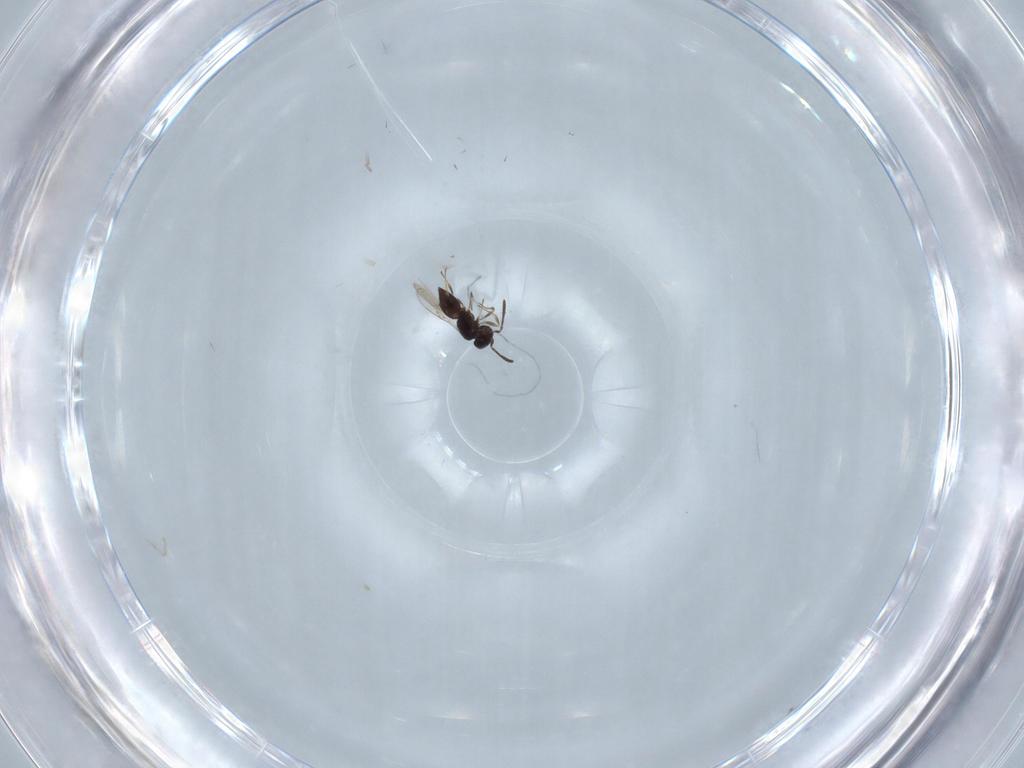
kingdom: Animalia
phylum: Arthropoda
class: Insecta
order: Hymenoptera
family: Scelionidae
